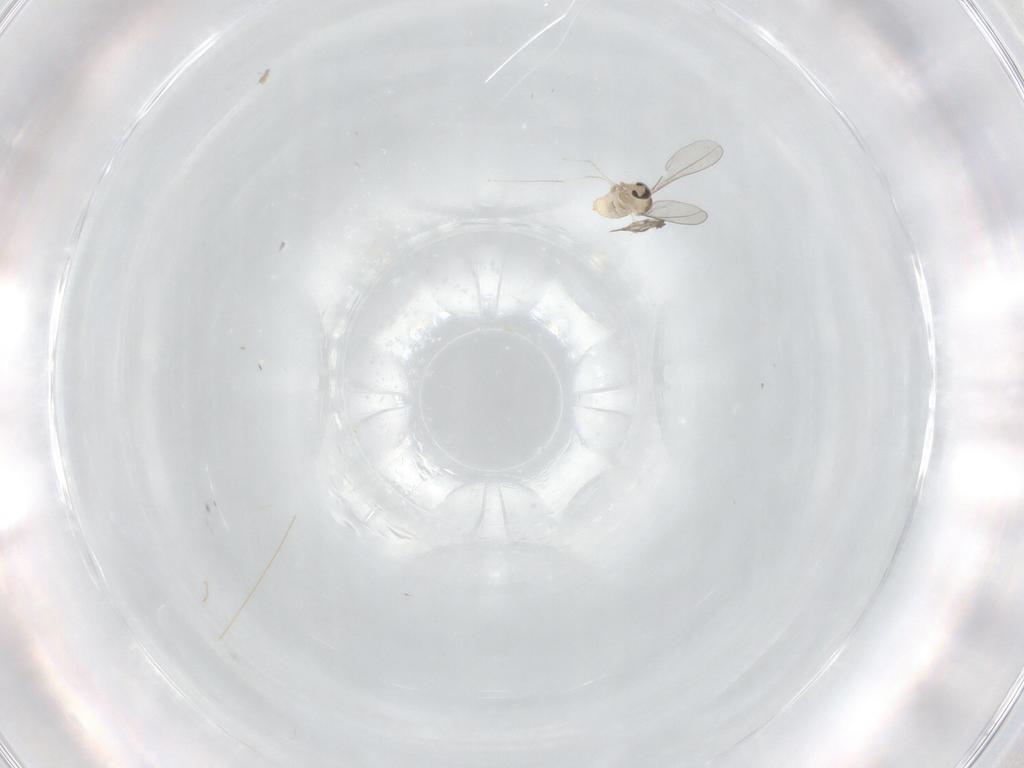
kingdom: Animalia
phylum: Arthropoda
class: Insecta
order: Diptera
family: Cecidomyiidae
